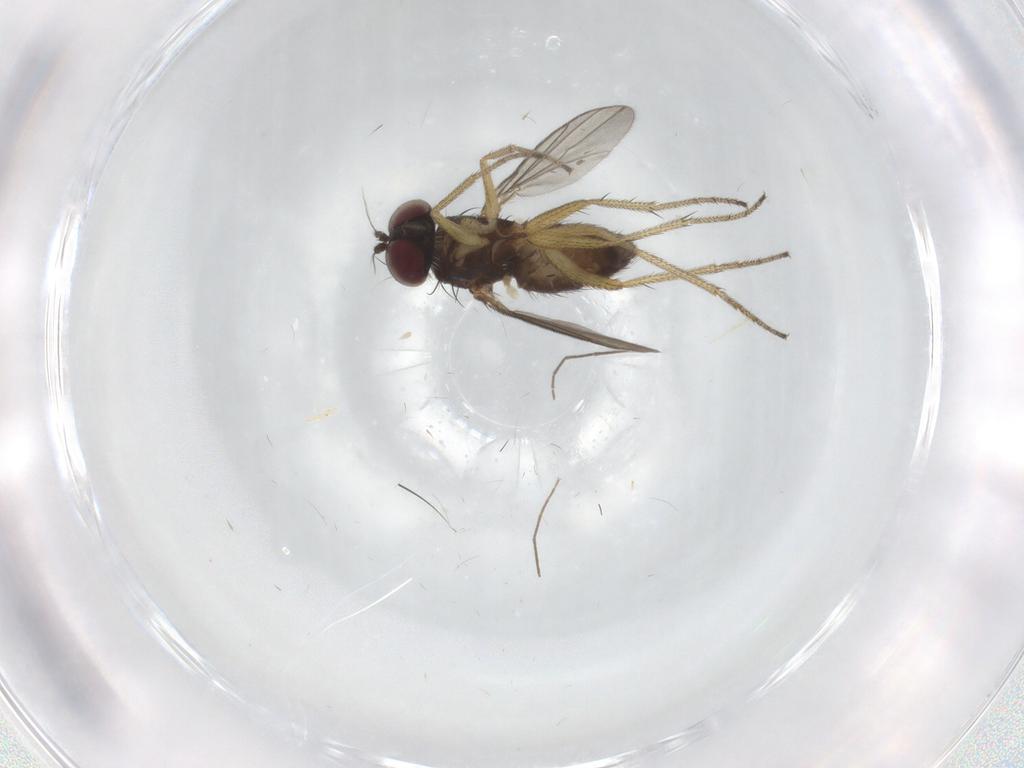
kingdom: Animalia
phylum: Arthropoda
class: Insecta
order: Diptera
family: Dolichopodidae
